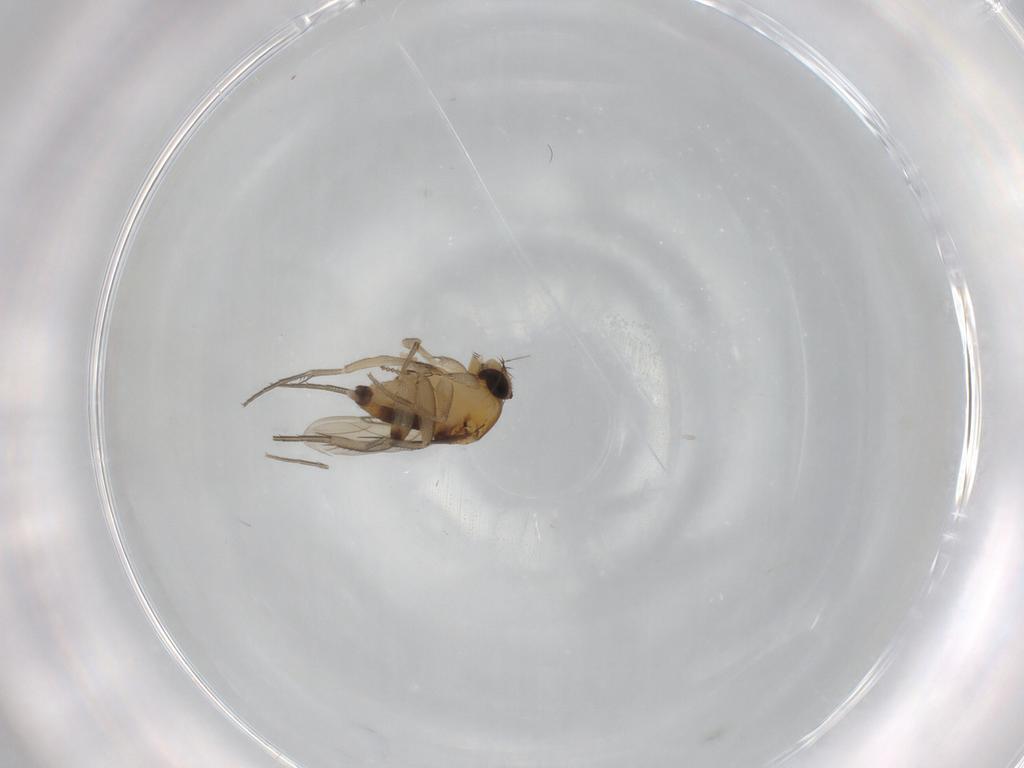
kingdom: Animalia
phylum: Arthropoda
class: Insecta
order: Diptera
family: Phoridae
